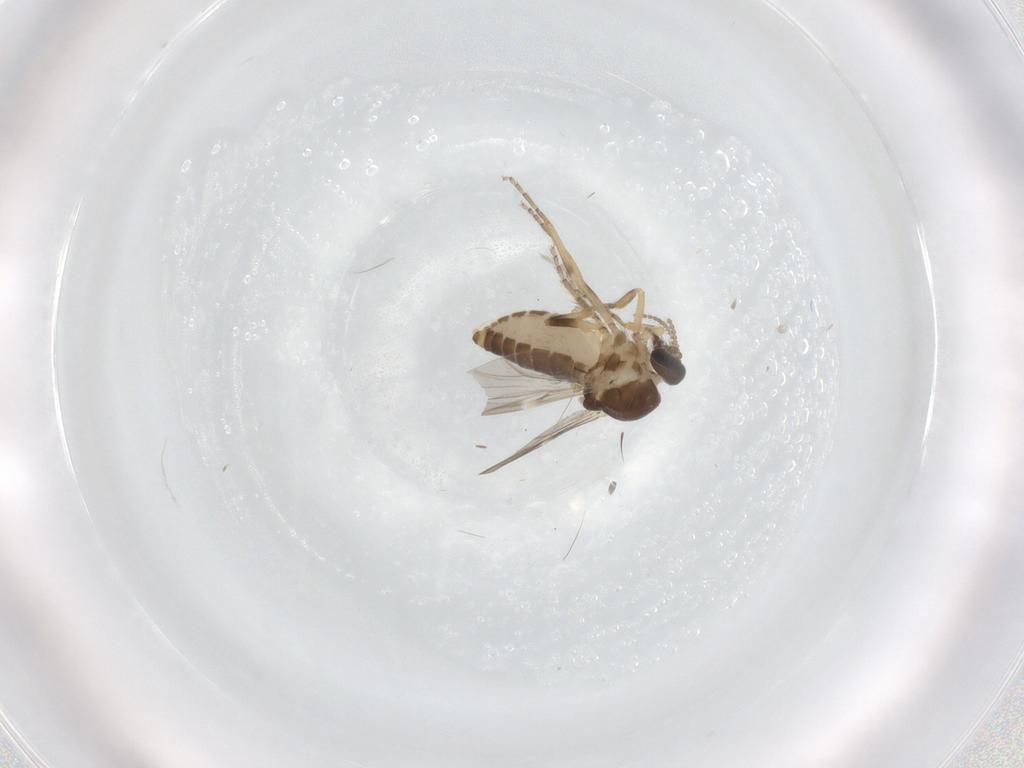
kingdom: Animalia
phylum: Arthropoda
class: Insecta
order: Diptera
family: Ceratopogonidae
